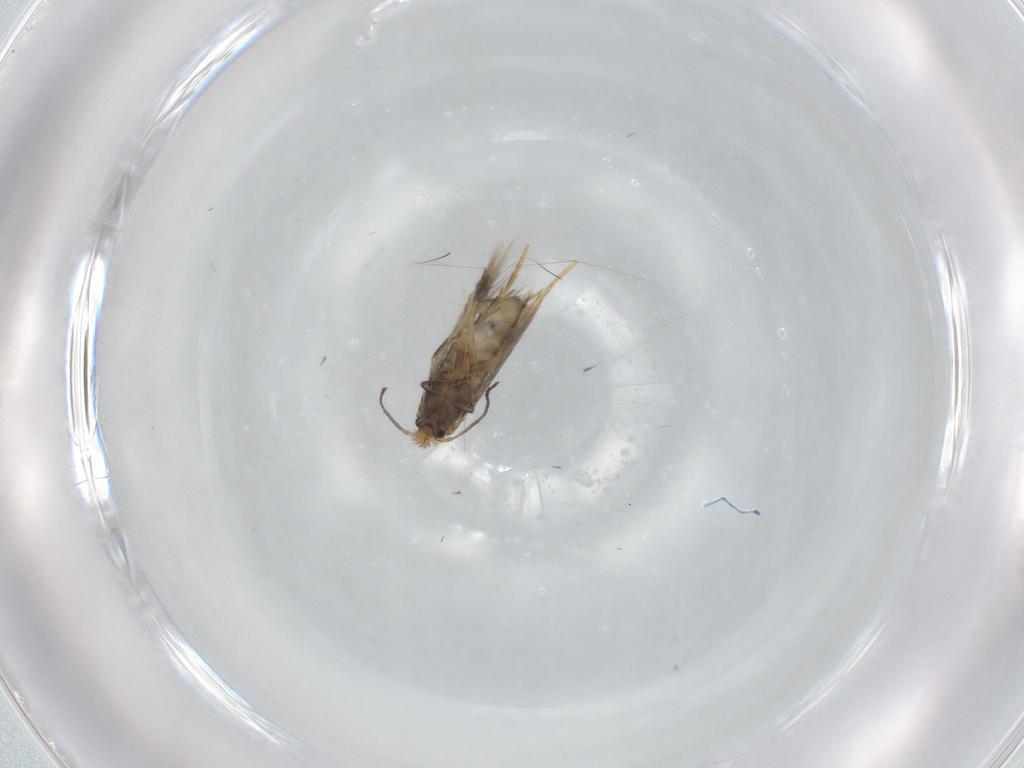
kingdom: Animalia
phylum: Arthropoda
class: Insecta
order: Lepidoptera
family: Nepticulidae
